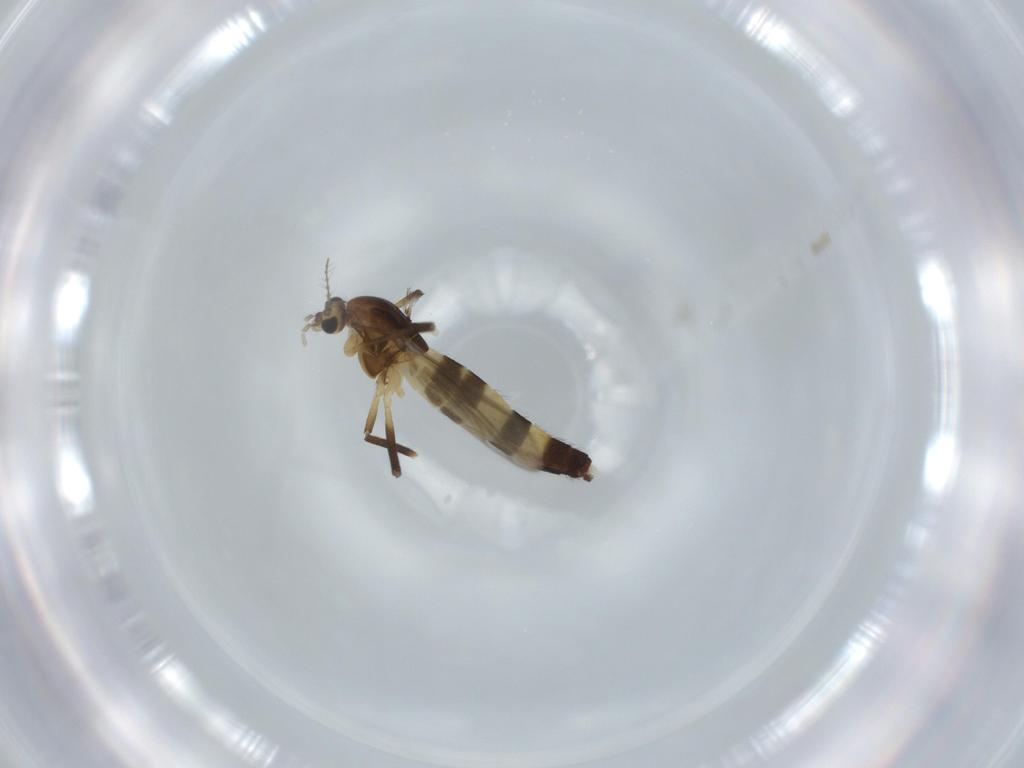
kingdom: Animalia
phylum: Arthropoda
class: Insecta
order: Diptera
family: Chironomidae
